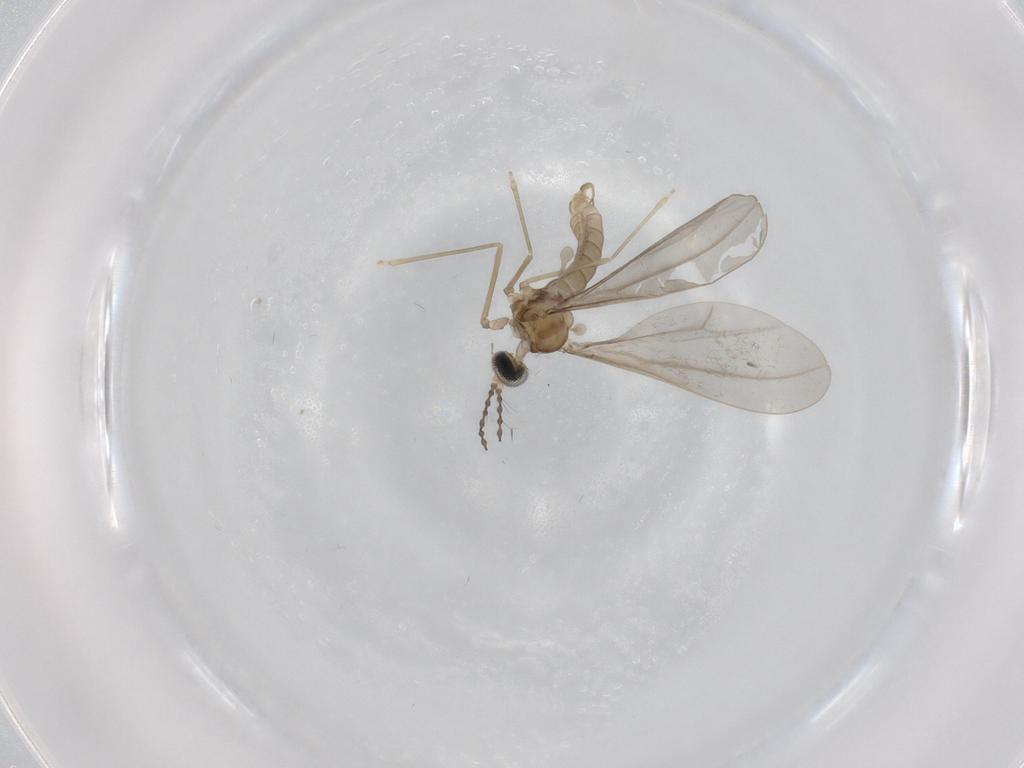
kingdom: Animalia
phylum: Arthropoda
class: Insecta
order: Diptera
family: Cecidomyiidae
